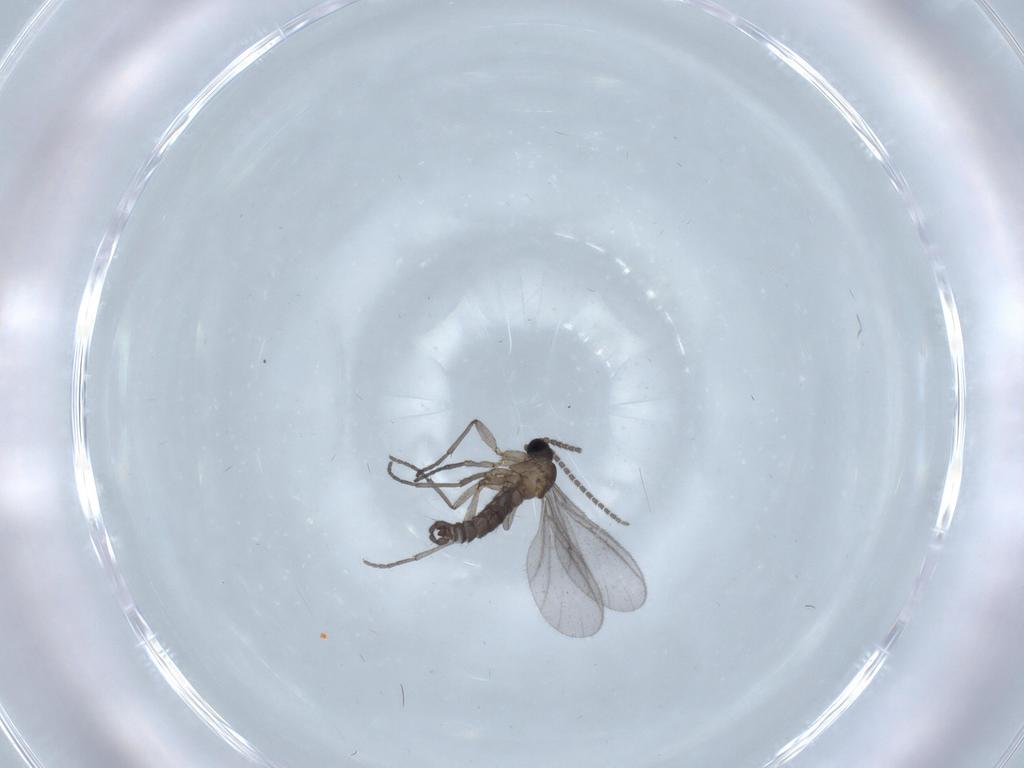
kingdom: Animalia
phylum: Arthropoda
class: Insecta
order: Diptera
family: Sciaridae
